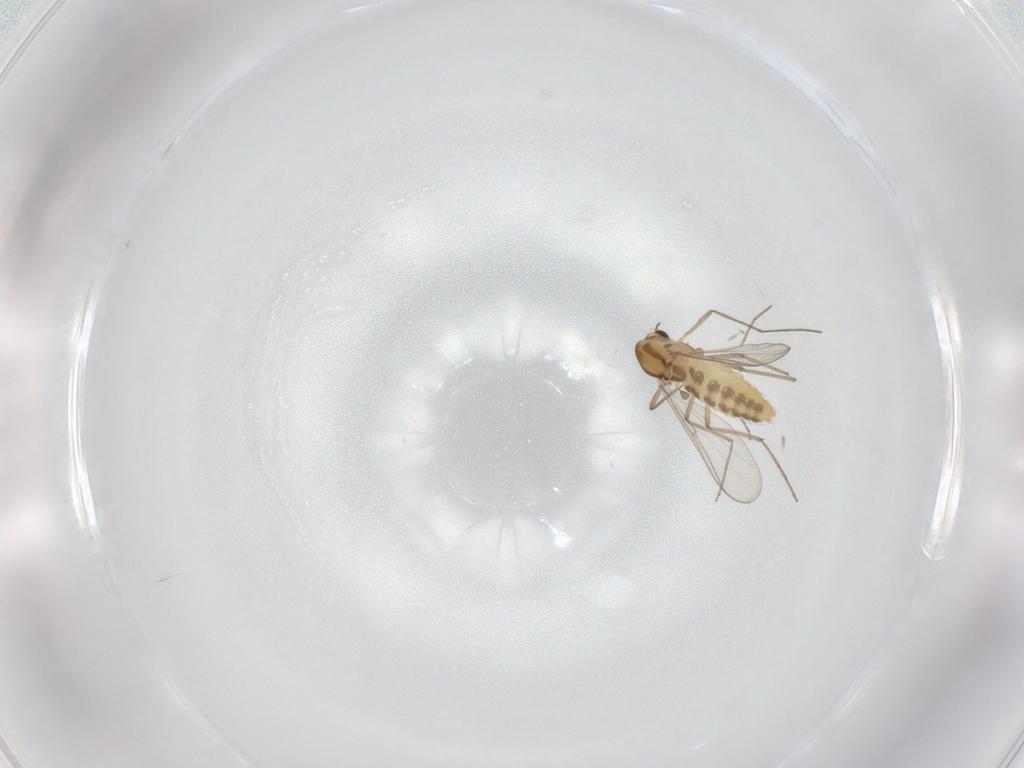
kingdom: Animalia
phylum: Arthropoda
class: Insecta
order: Diptera
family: Chironomidae
